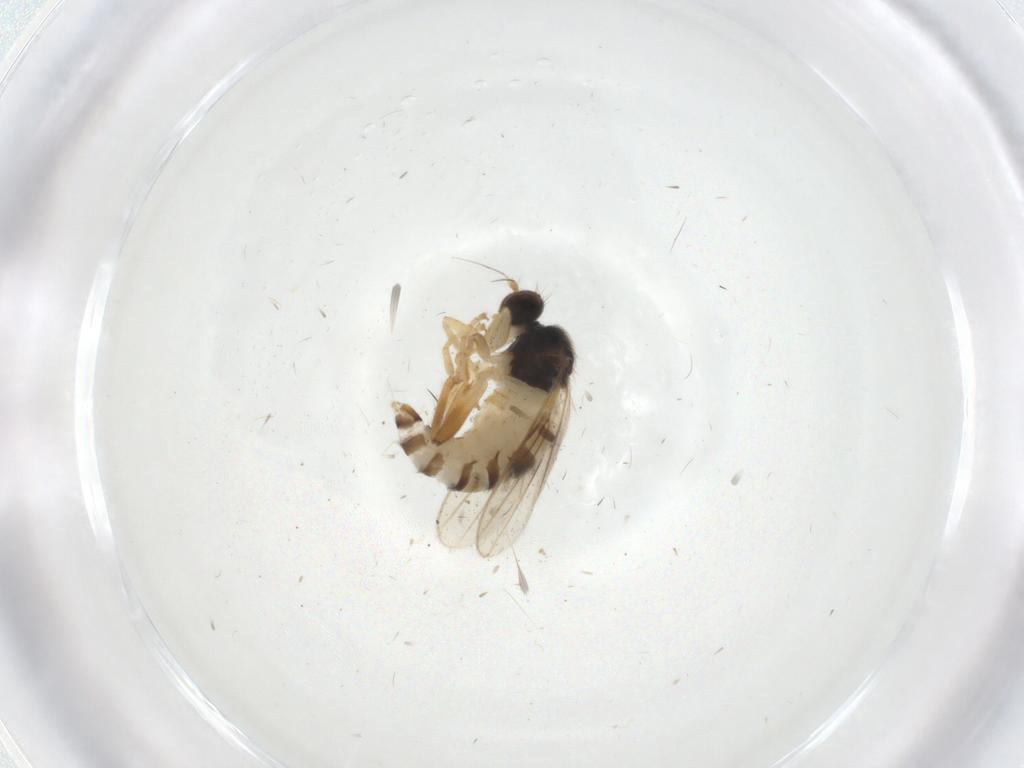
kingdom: Animalia
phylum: Arthropoda
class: Insecta
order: Diptera
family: Hybotidae
